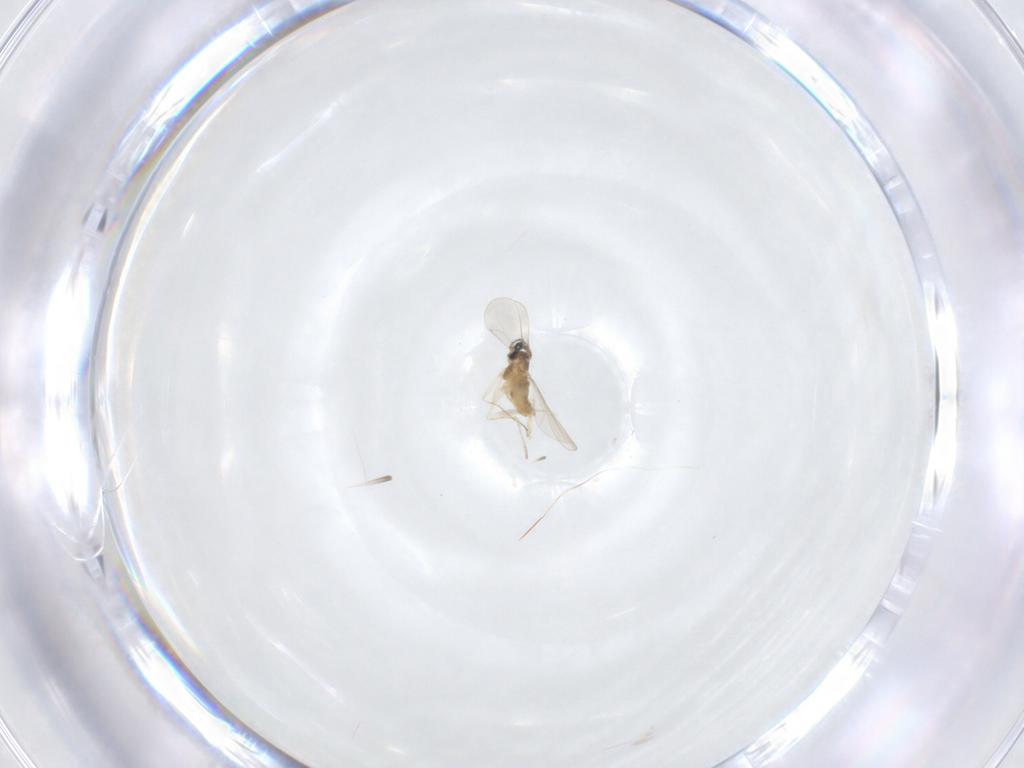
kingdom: Animalia
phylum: Arthropoda
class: Insecta
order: Diptera
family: Cecidomyiidae
